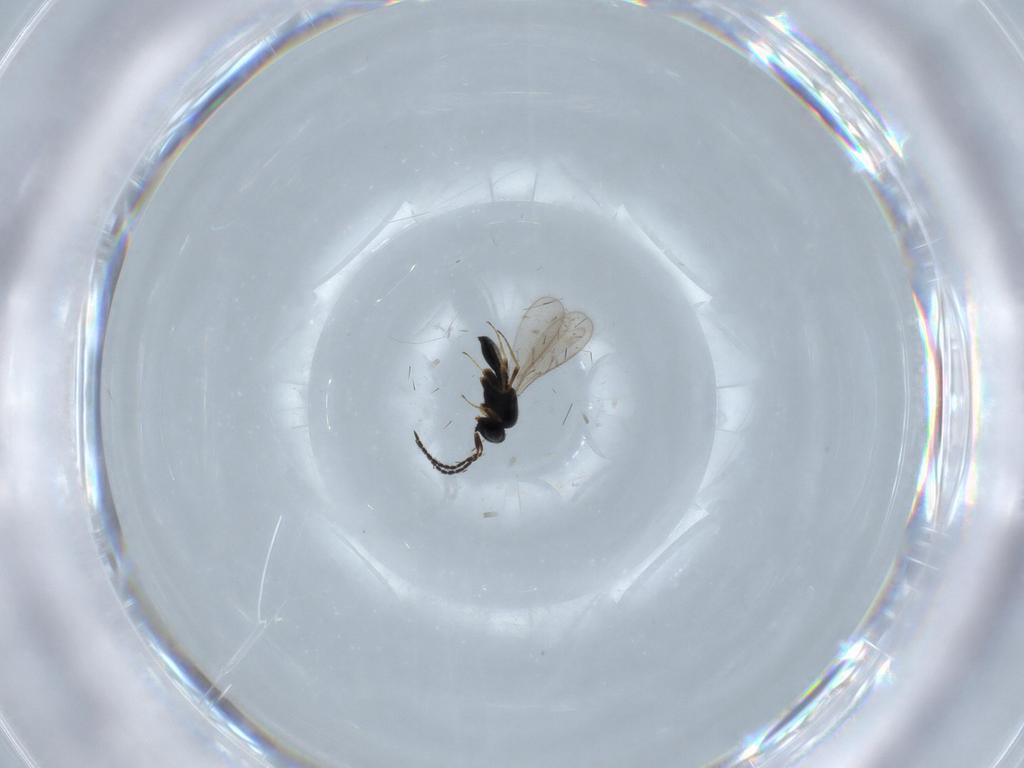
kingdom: Animalia
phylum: Arthropoda
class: Insecta
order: Hymenoptera
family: Scelionidae
